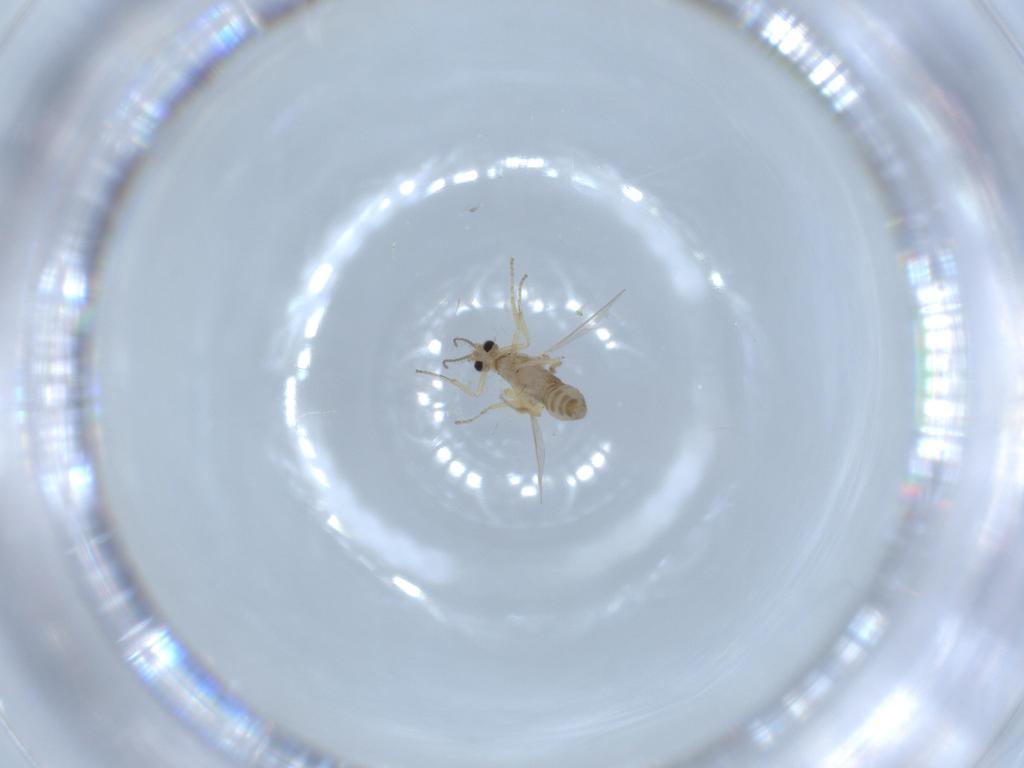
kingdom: Animalia
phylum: Arthropoda
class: Insecta
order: Diptera
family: Ceratopogonidae
